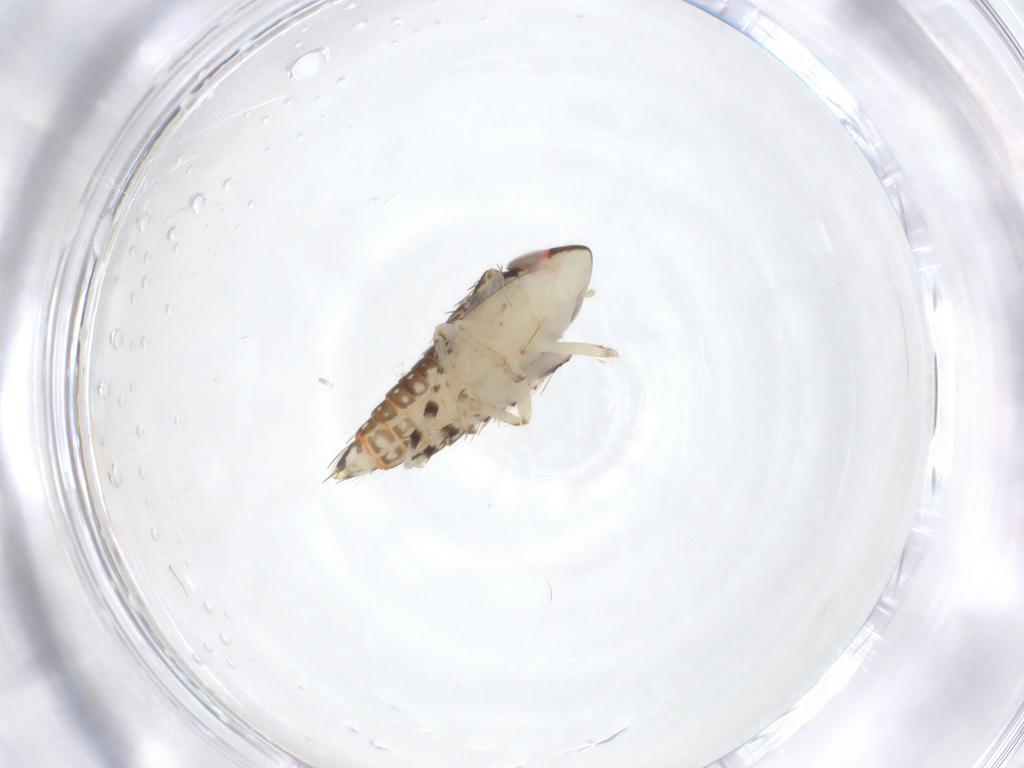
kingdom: Animalia
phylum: Arthropoda
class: Insecta
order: Hemiptera
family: Cicadellidae
